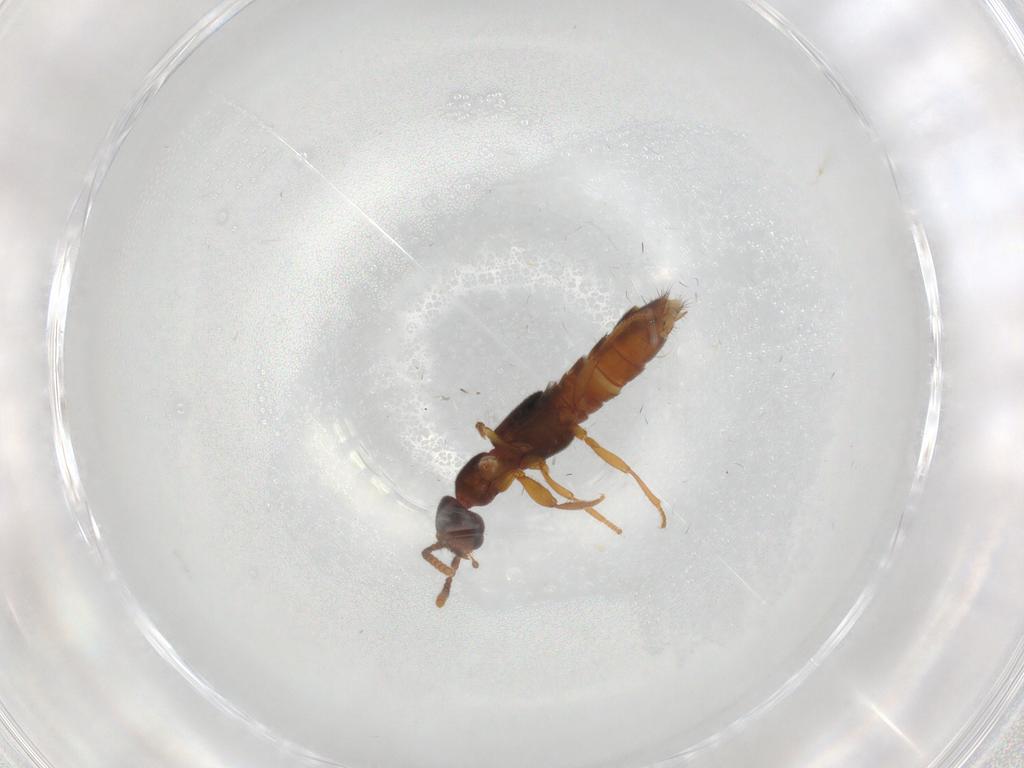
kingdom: Animalia
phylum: Arthropoda
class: Insecta
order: Coleoptera
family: Staphylinidae
